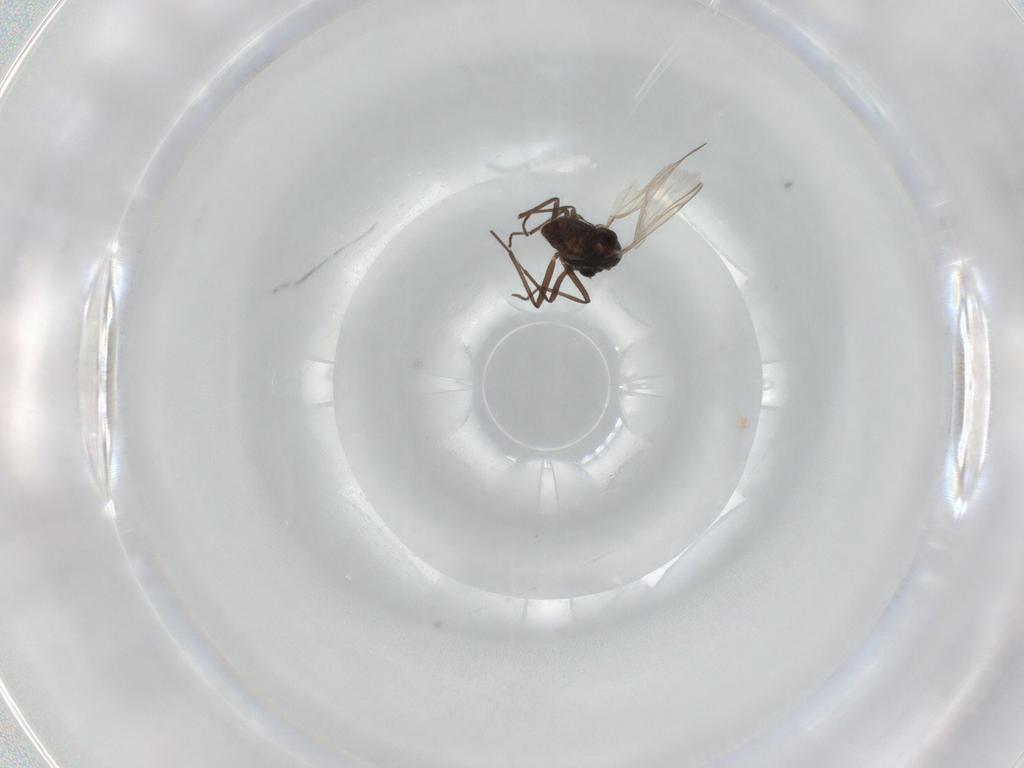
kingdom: Animalia
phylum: Arthropoda
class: Insecta
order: Diptera
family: Chironomidae
